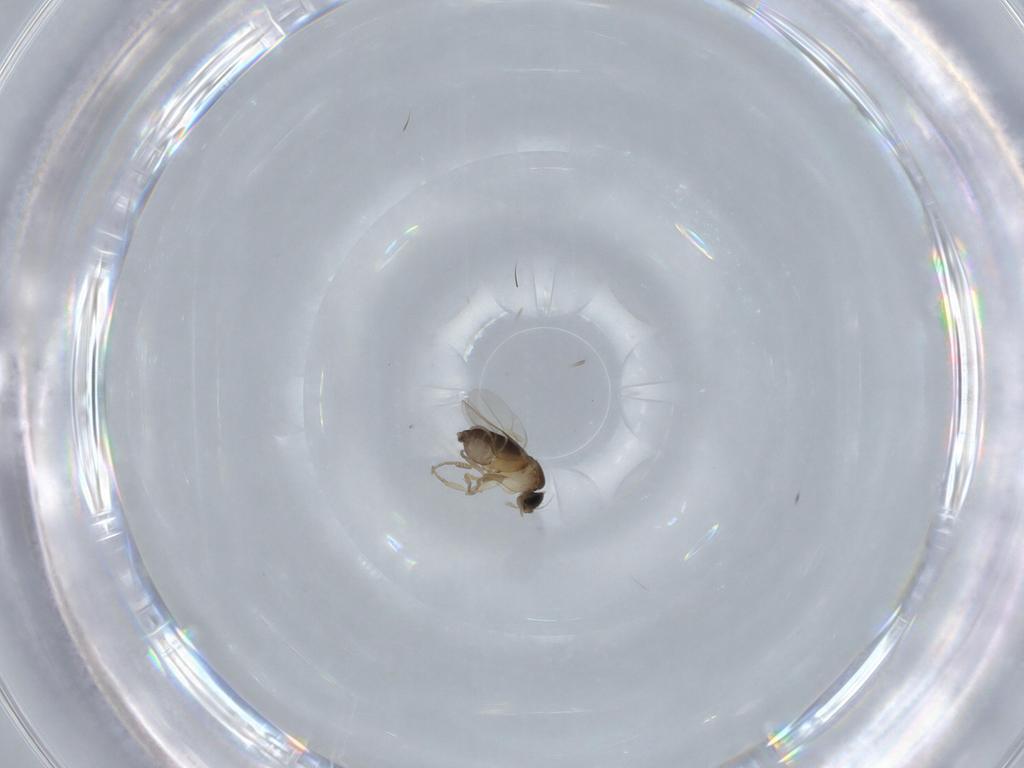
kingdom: Animalia
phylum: Arthropoda
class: Insecta
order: Diptera
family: Phoridae
